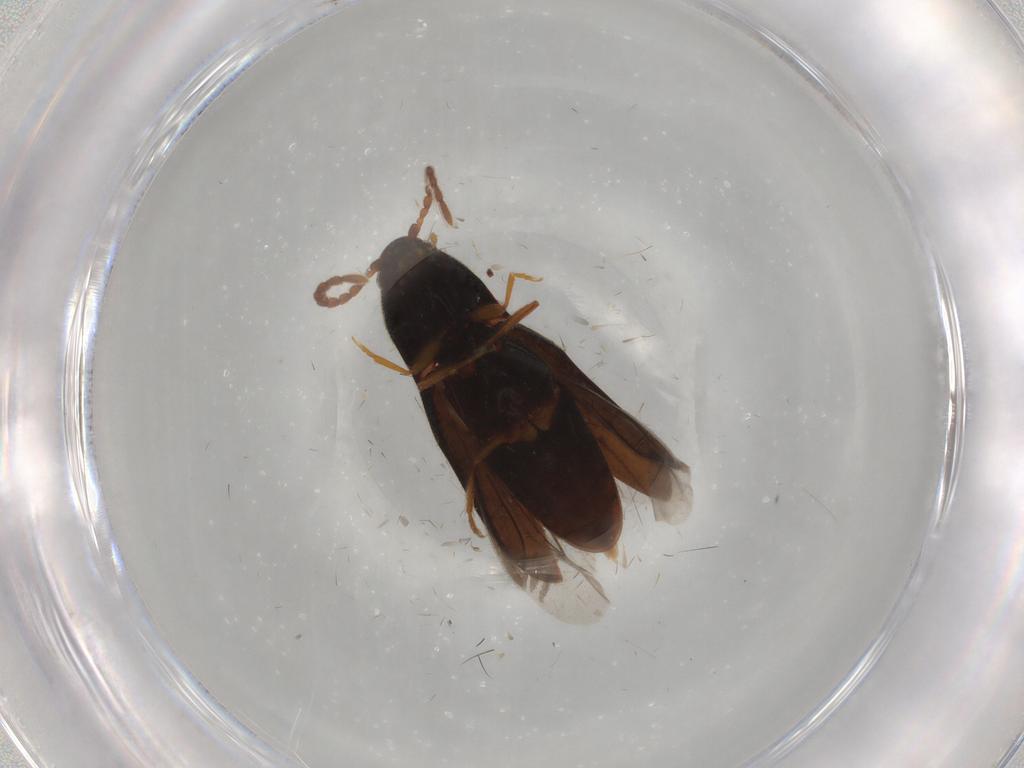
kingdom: Animalia
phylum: Arthropoda
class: Insecta
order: Coleoptera
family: Elateridae
